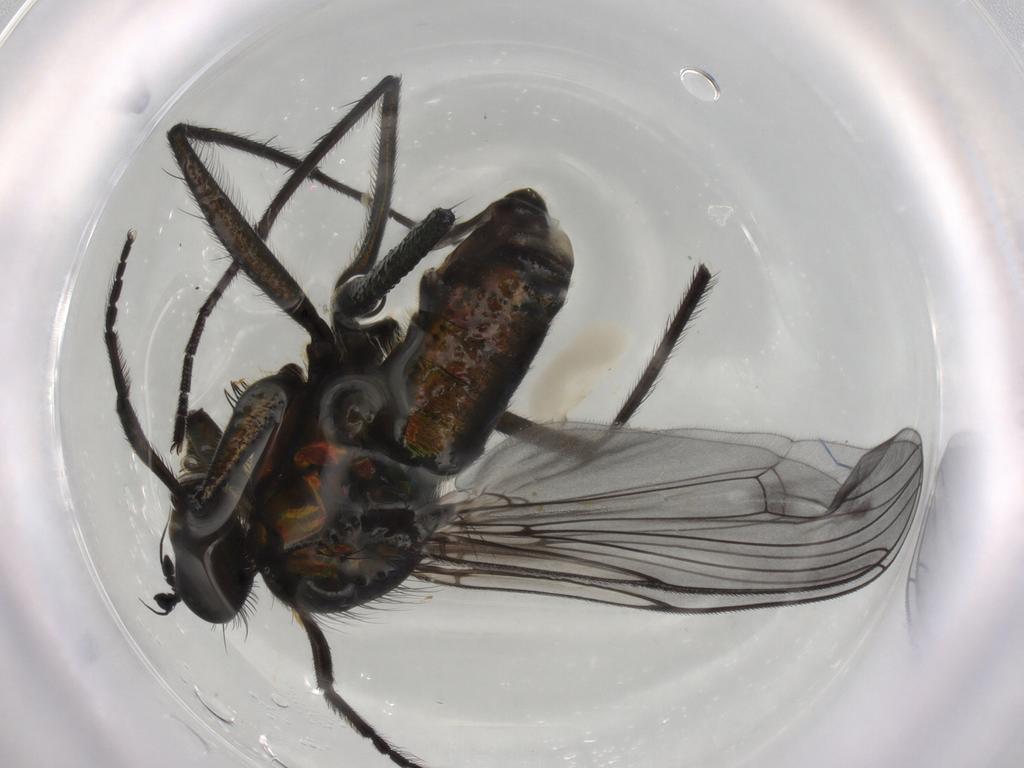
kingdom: Animalia
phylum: Arthropoda
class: Insecta
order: Diptera
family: Dolichopodidae
